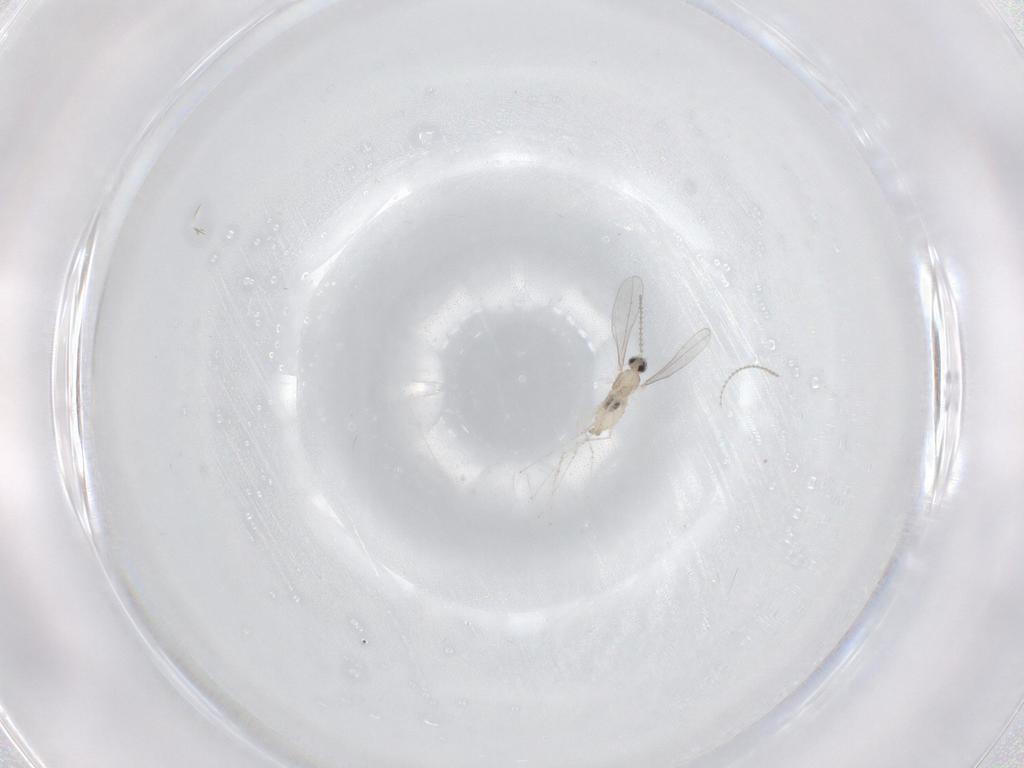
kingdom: Animalia
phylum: Arthropoda
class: Insecta
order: Diptera
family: Cecidomyiidae
